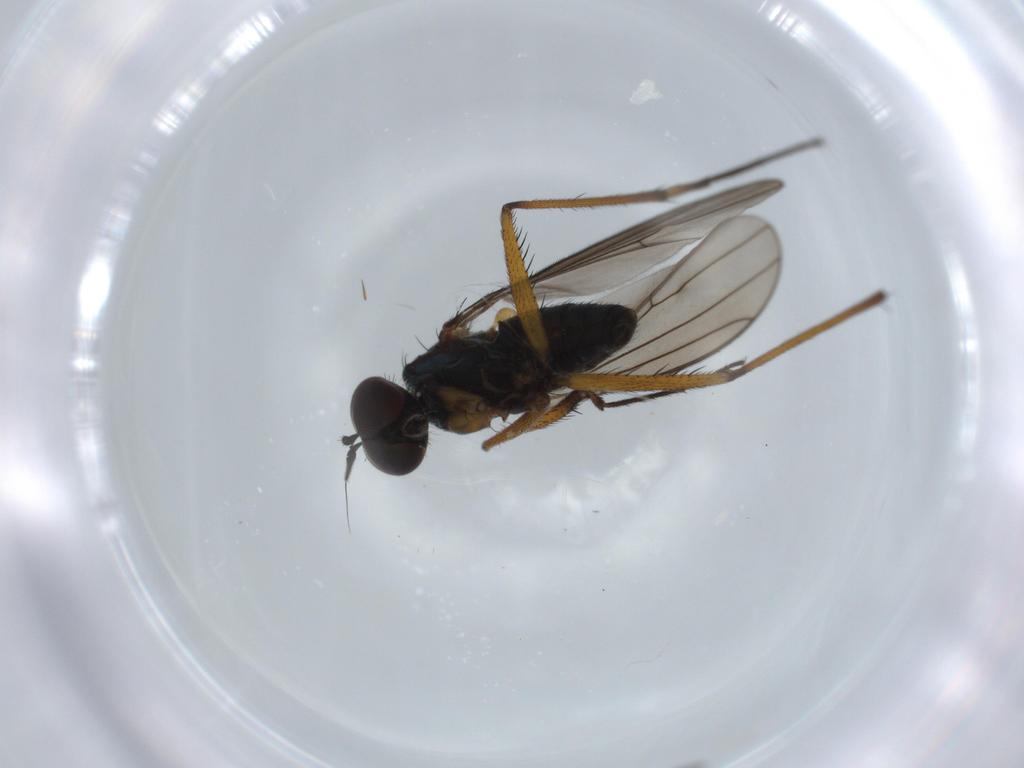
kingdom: Animalia
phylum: Arthropoda
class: Insecta
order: Diptera
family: Dolichopodidae
